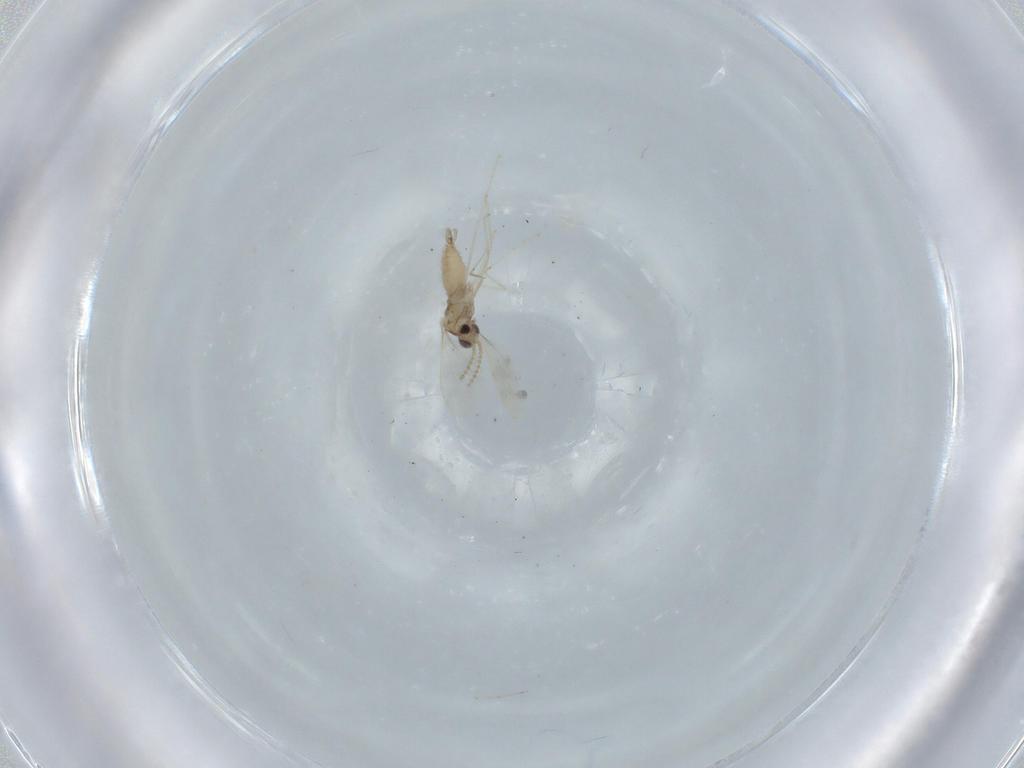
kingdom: Animalia
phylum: Arthropoda
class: Insecta
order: Diptera
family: Cecidomyiidae
